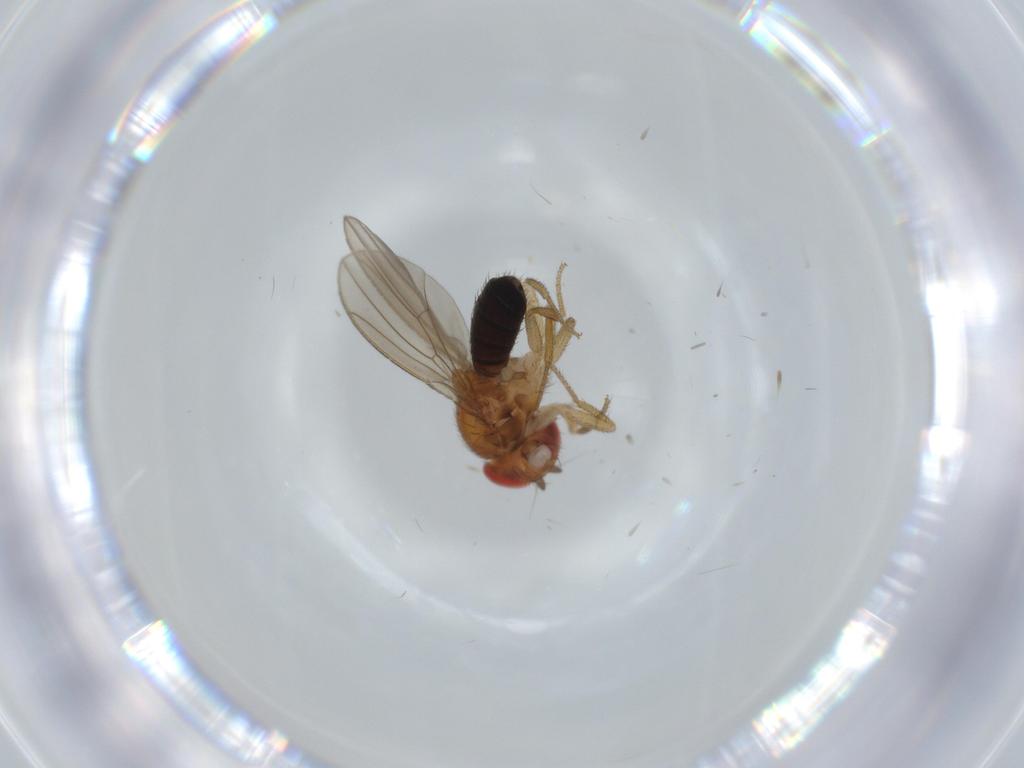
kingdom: Animalia
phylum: Arthropoda
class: Insecta
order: Diptera
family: Drosophilidae
